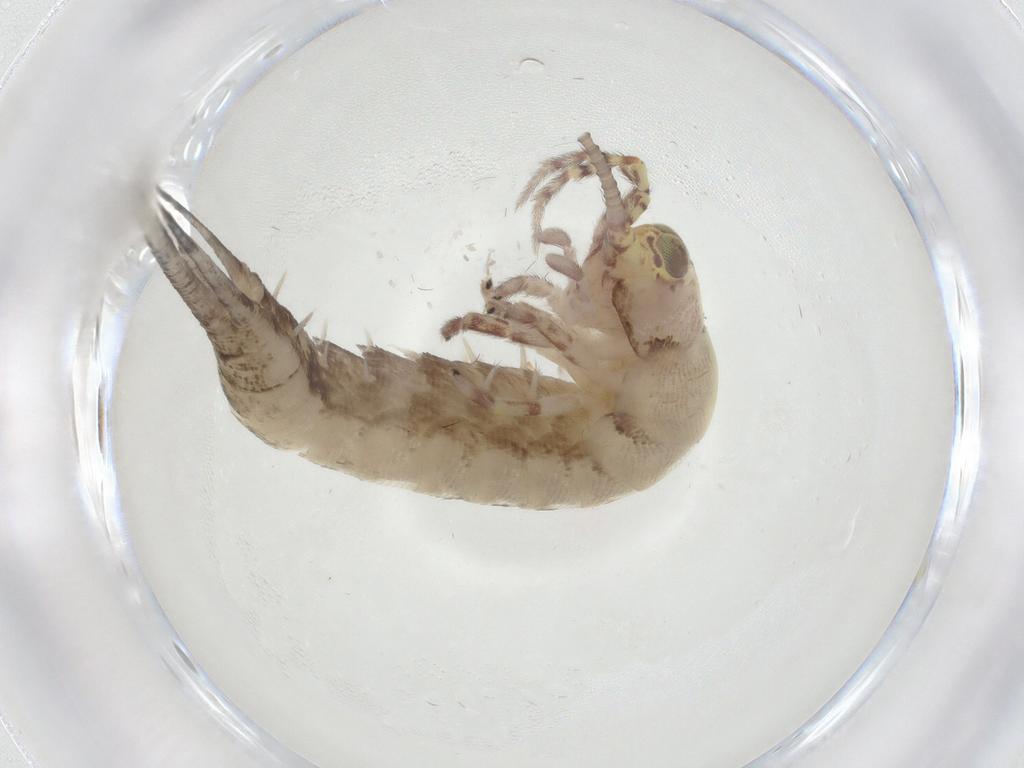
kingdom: Animalia
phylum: Arthropoda
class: Insecta
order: Archaeognatha
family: Machilidae
